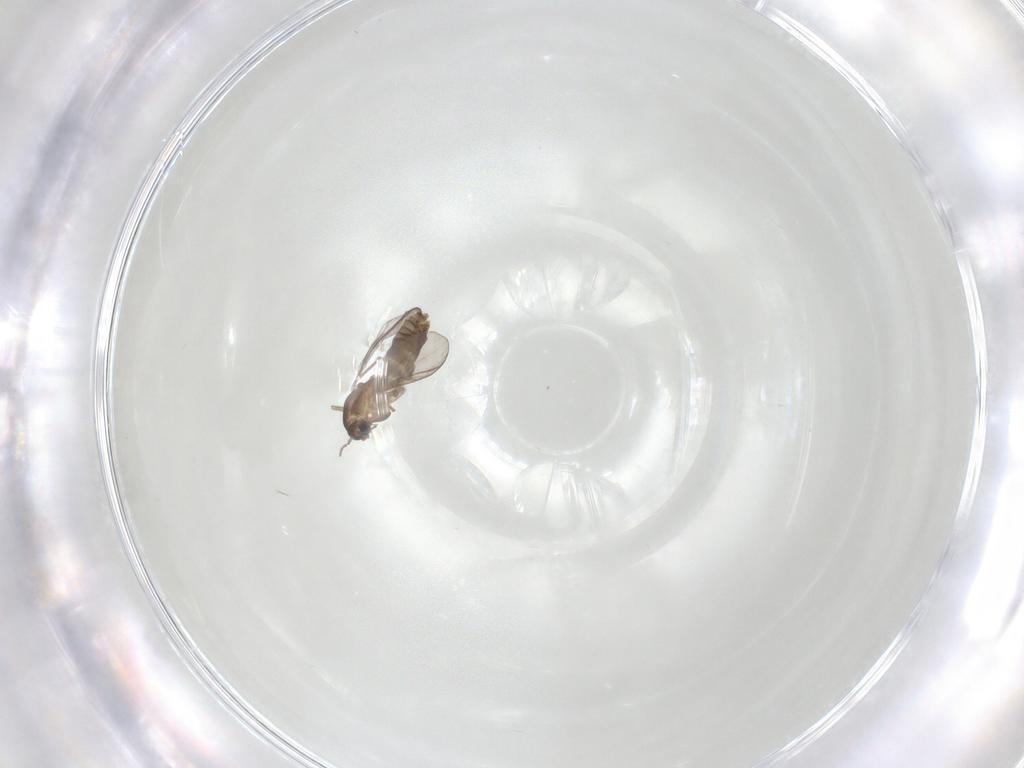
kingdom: Animalia
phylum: Arthropoda
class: Insecta
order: Diptera
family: Chironomidae
